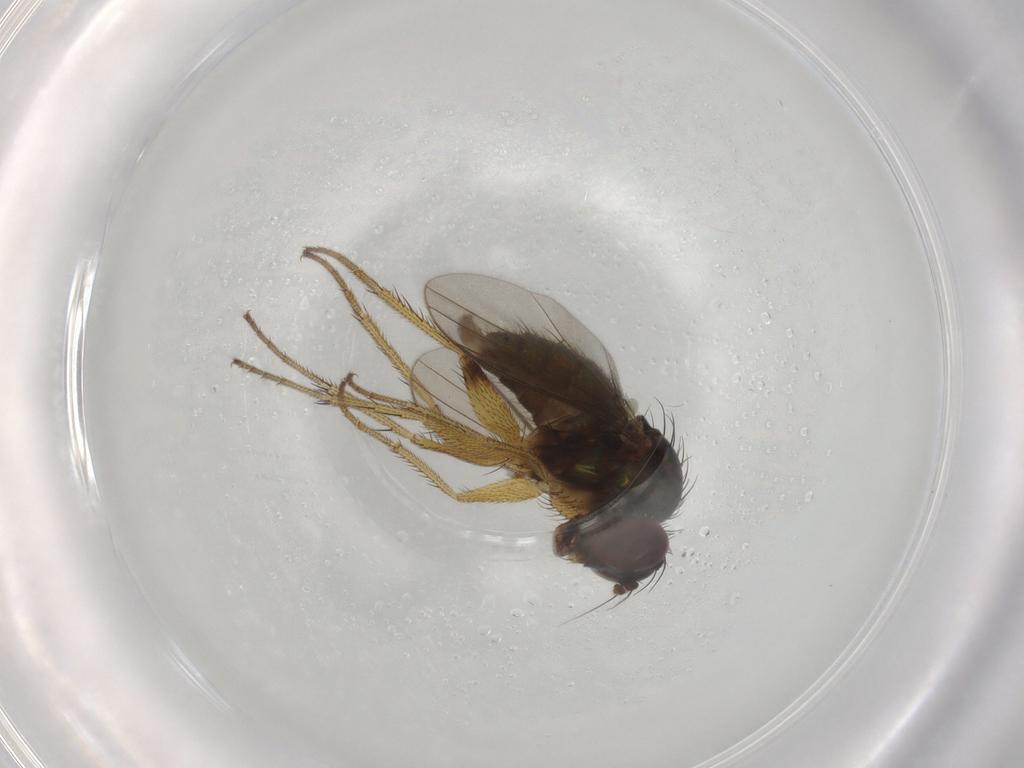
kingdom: Animalia
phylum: Arthropoda
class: Insecta
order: Diptera
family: Dolichopodidae
